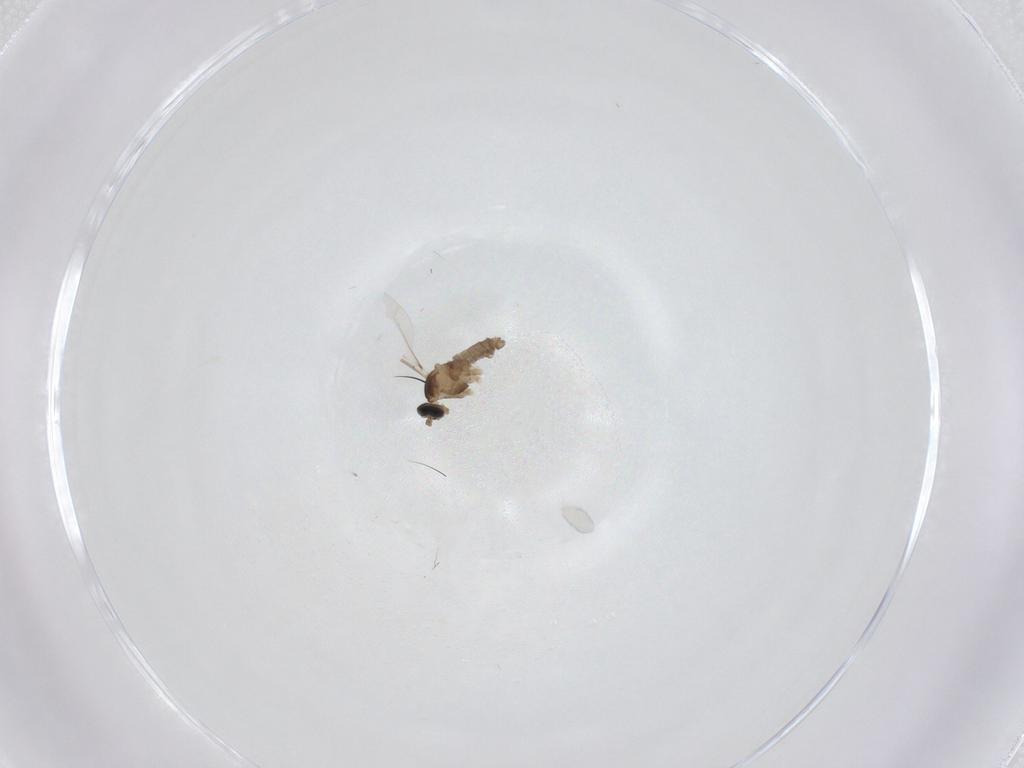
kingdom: Animalia
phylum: Arthropoda
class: Insecta
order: Diptera
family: Cecidomyiidae
